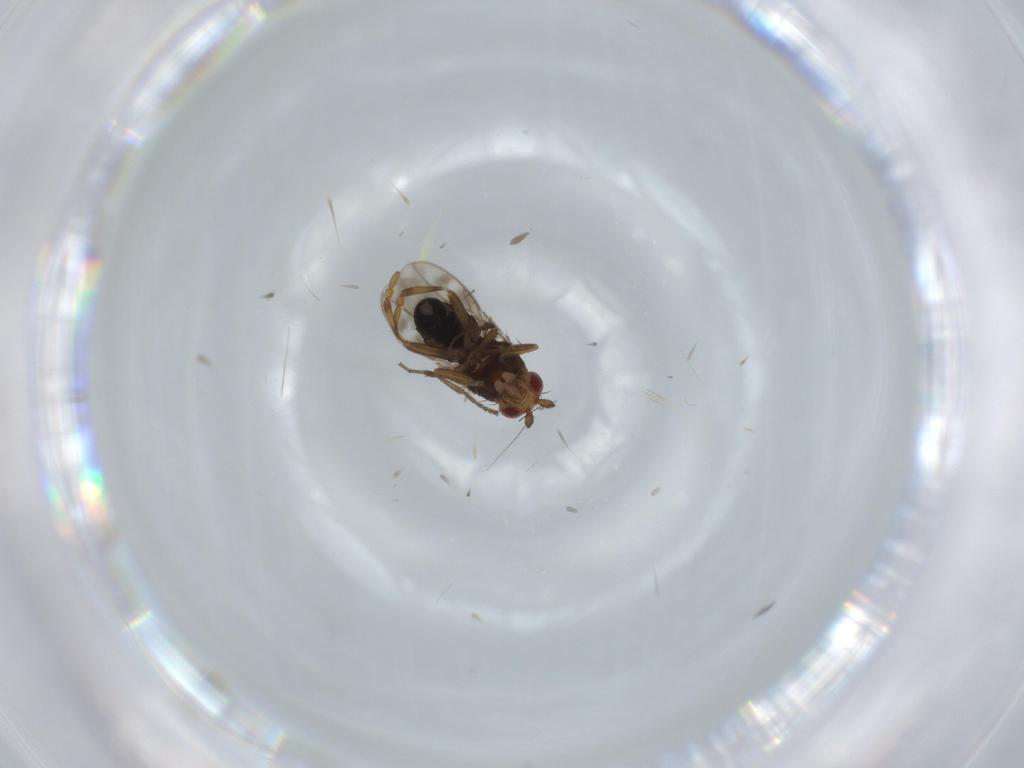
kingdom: Animalia
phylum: Arthropoda
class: Insecta
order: Diptera
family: Sphaeroceridae
